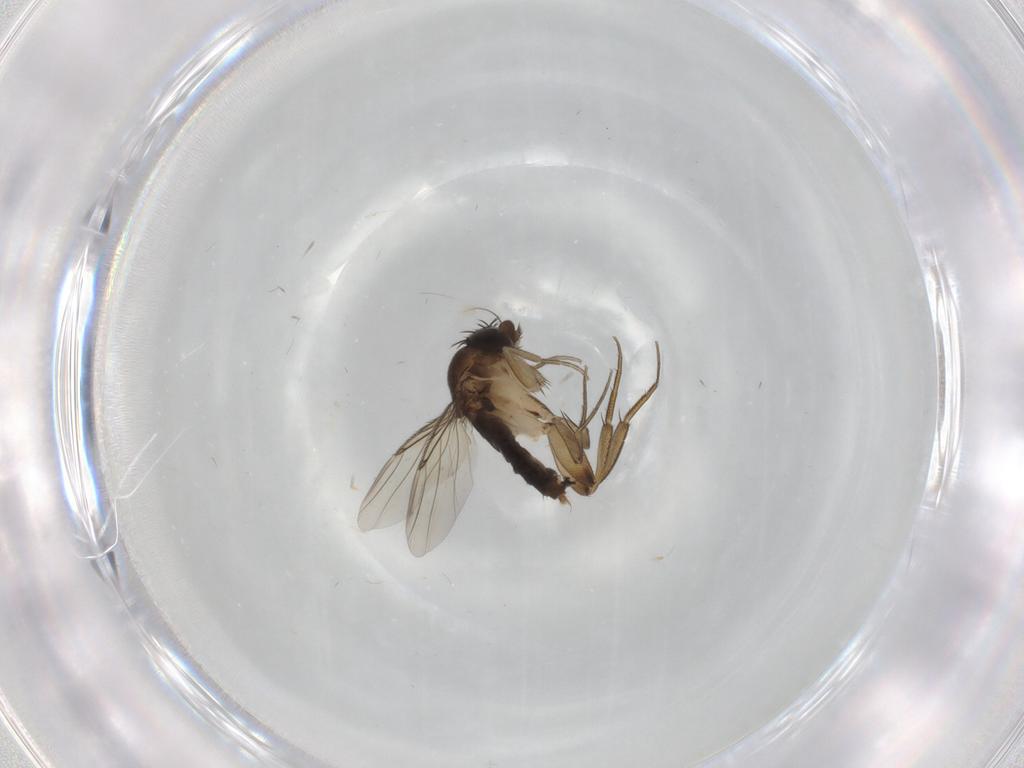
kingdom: Animalia
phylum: Arthropoda
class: Insecta
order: Diptera
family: Phoridae
